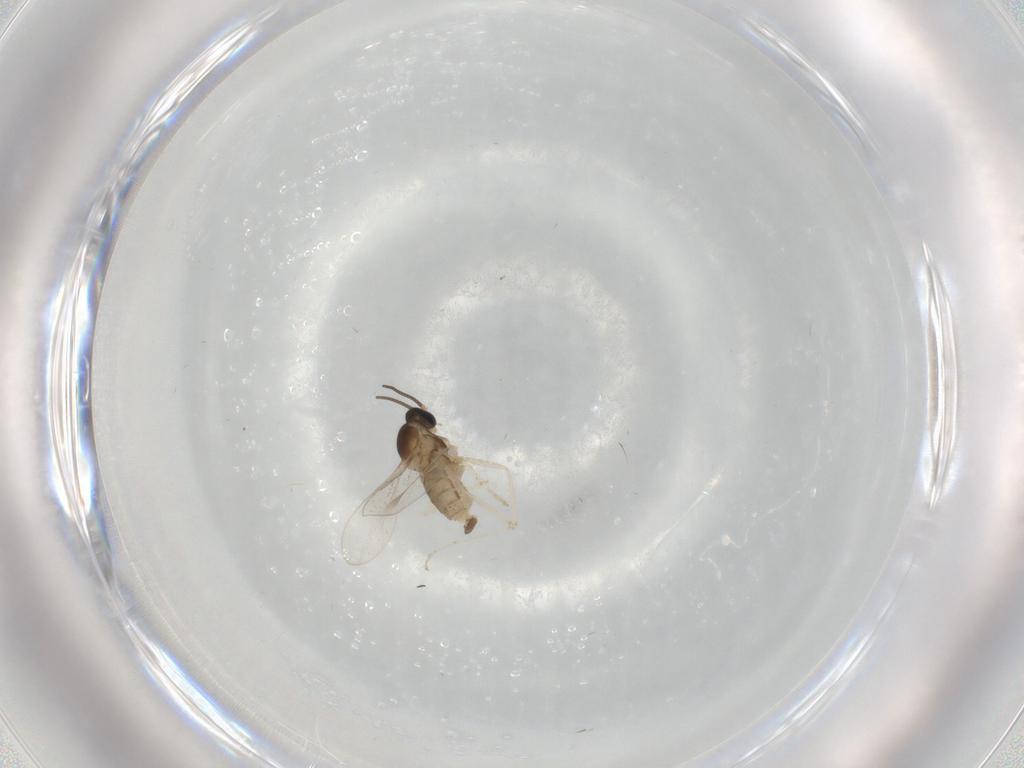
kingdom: Animalia
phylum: Arthropoda
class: Insecta
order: Diptera
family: Cecidomyiidae
